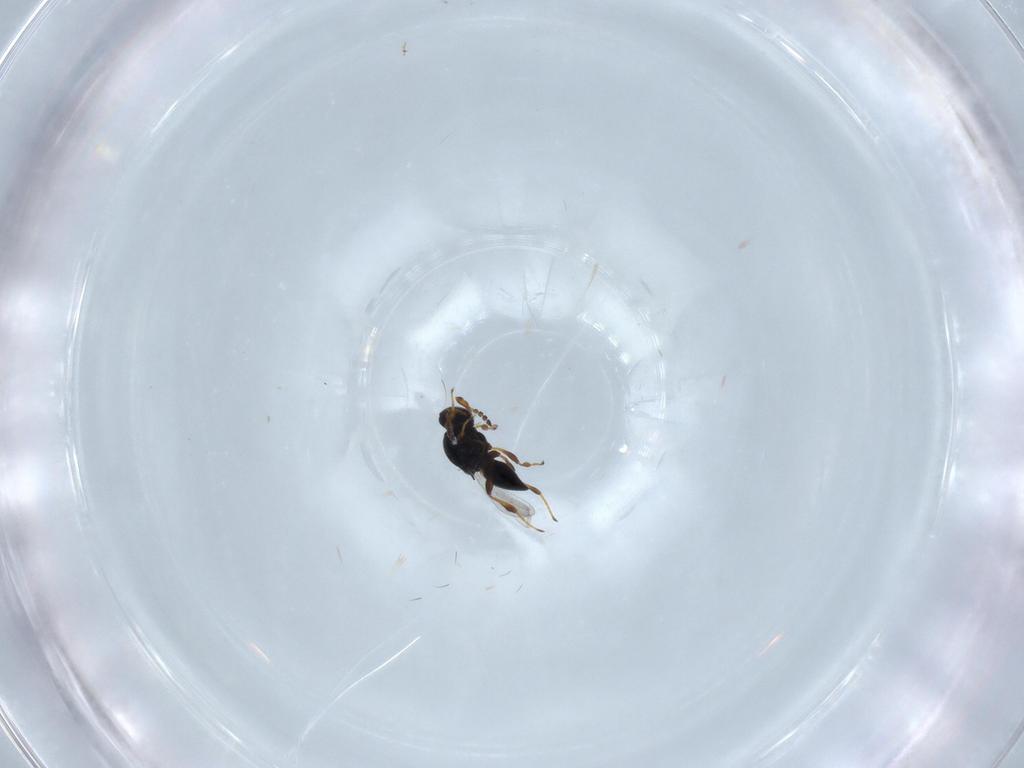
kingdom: Animalia
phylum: Arthropoda
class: Insecta
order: Hymenoptera
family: Platygastridae
